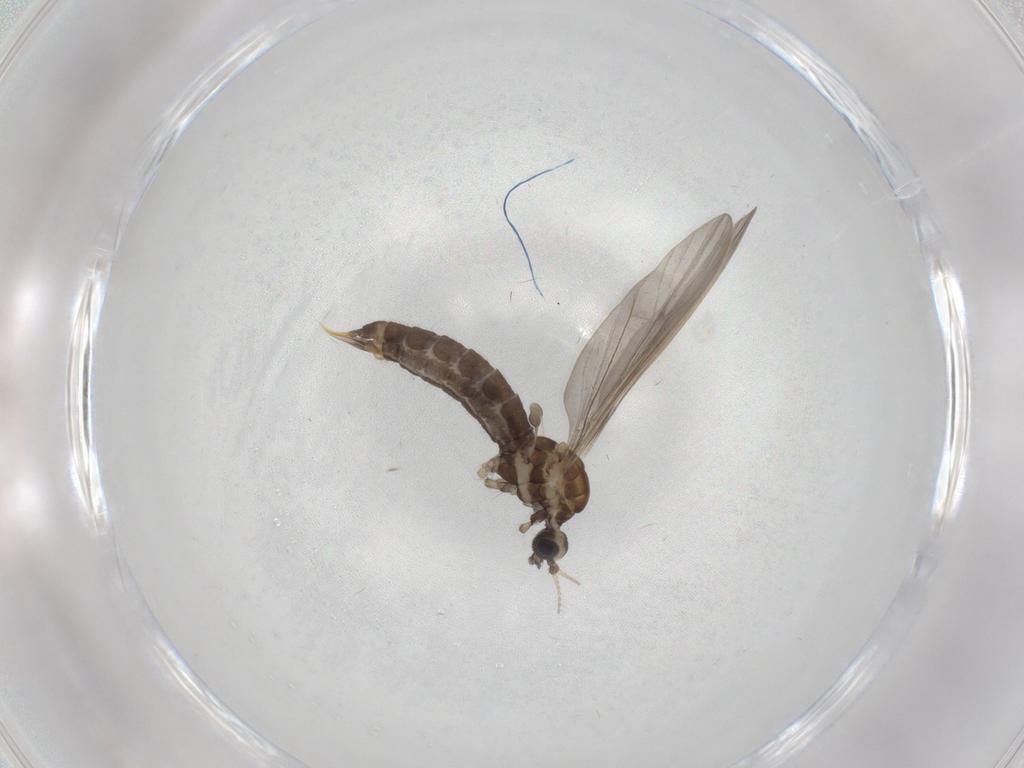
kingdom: Animalia
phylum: Arthropoda
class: Insecta
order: Diptera
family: Limoniidae
